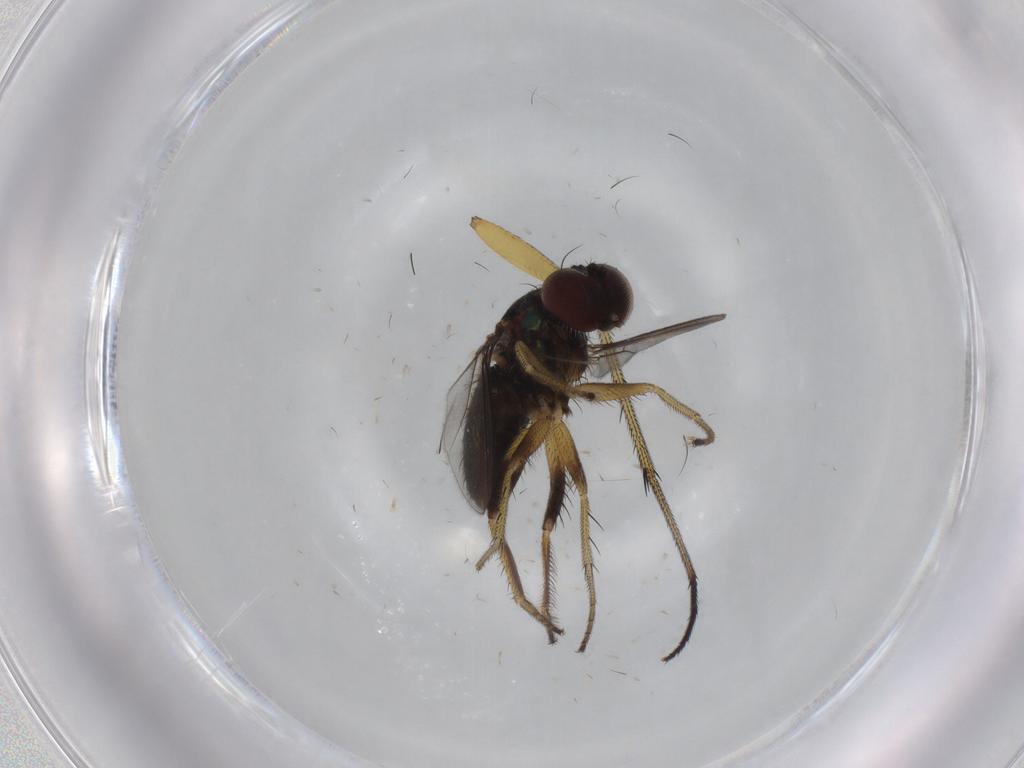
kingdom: Animalia
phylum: Arthropoda
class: Insecta
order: Diptera
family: Dolichopodidae
